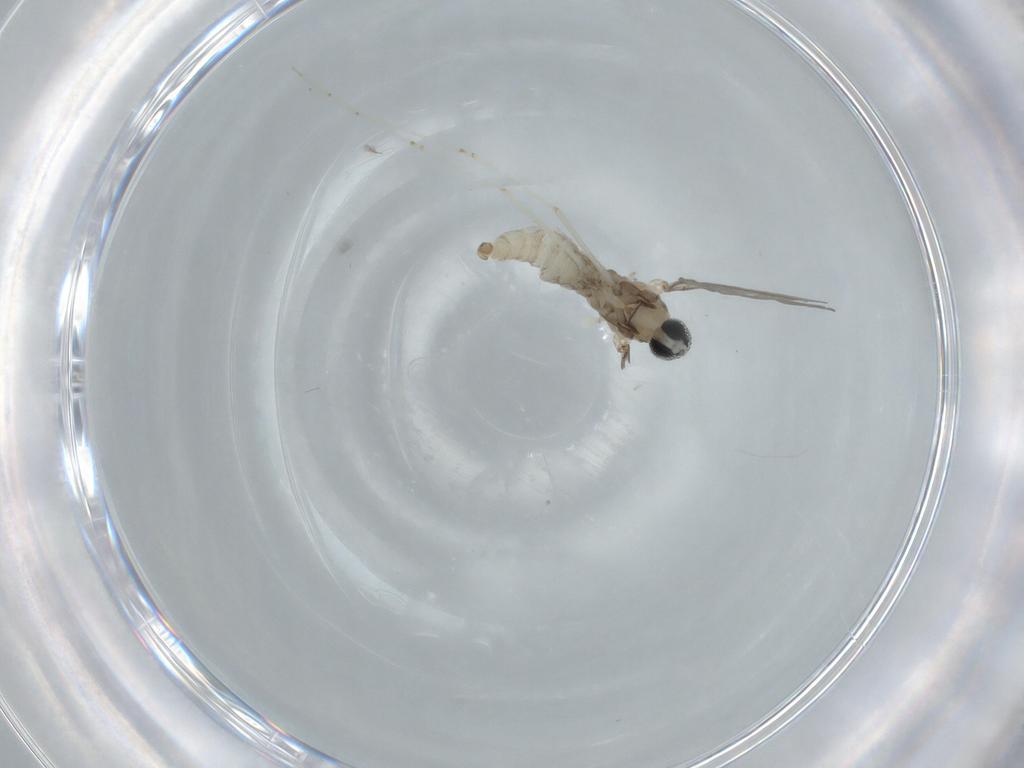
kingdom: Animalia
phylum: Arthropoda
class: Insecta
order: Diptera
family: Cecidomyiidae
